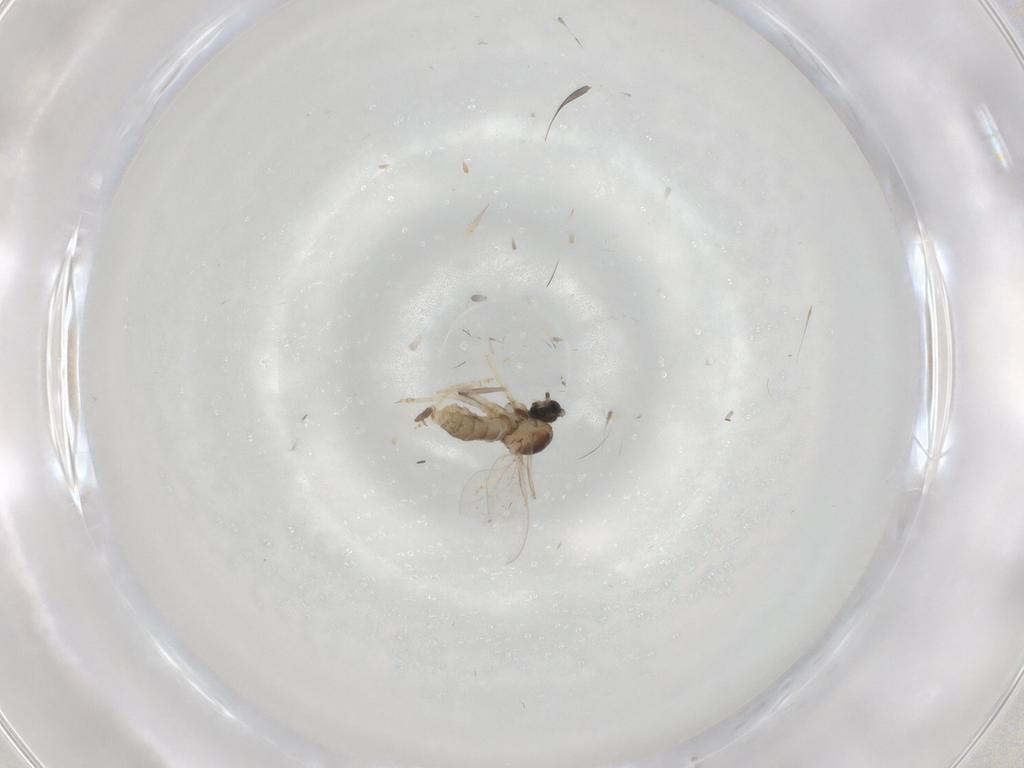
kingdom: Animalia
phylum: Arthropoda
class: Insecta
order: Diptera
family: Cecidomyiidae
